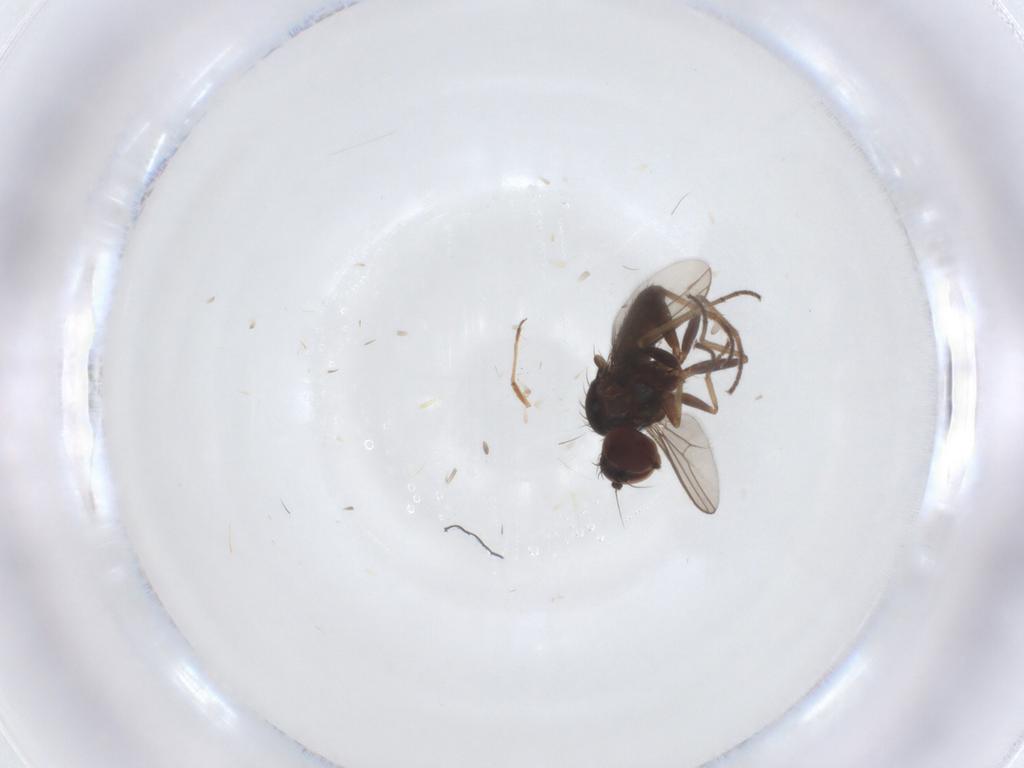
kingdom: Animalia
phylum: Arthropoda
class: Insecta
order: Diptera
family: Dolichopodidae
